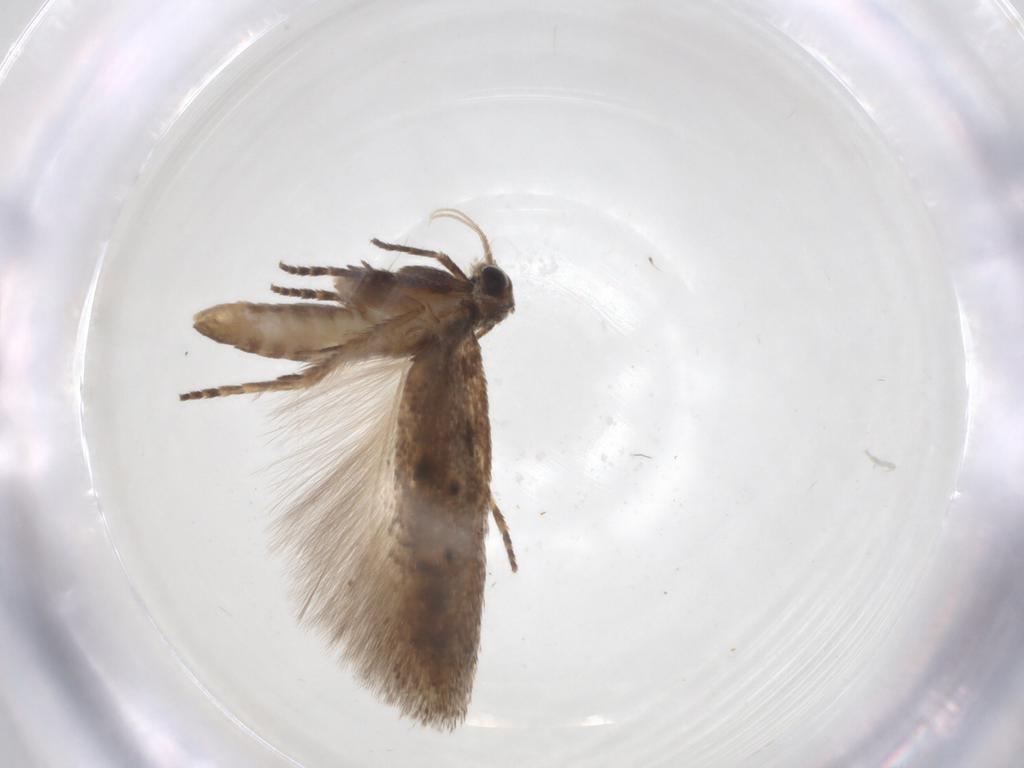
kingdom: Animalia
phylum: Arthropoda
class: Insecta
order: Lepidoptera
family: Gelechiidae
